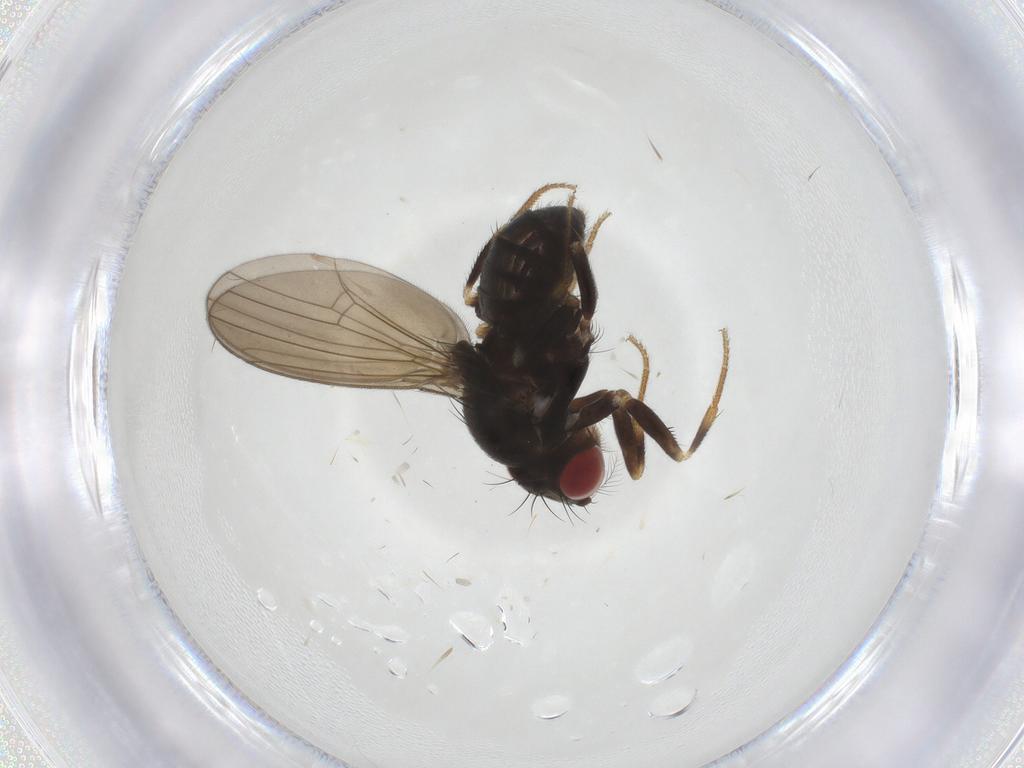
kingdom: Animalia
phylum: Arthropoda
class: Insecta
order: Diptera
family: Drosophilidae
